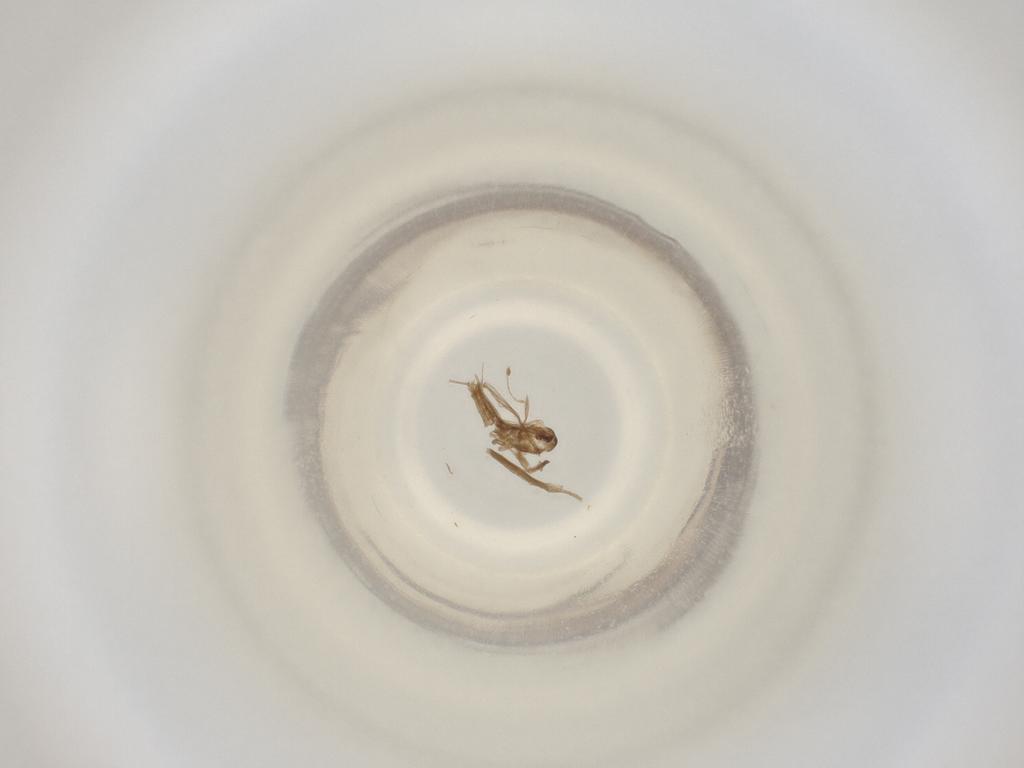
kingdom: Animalia
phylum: Arthropoda
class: Insecta
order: Diptera
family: Cecidomyiidae
